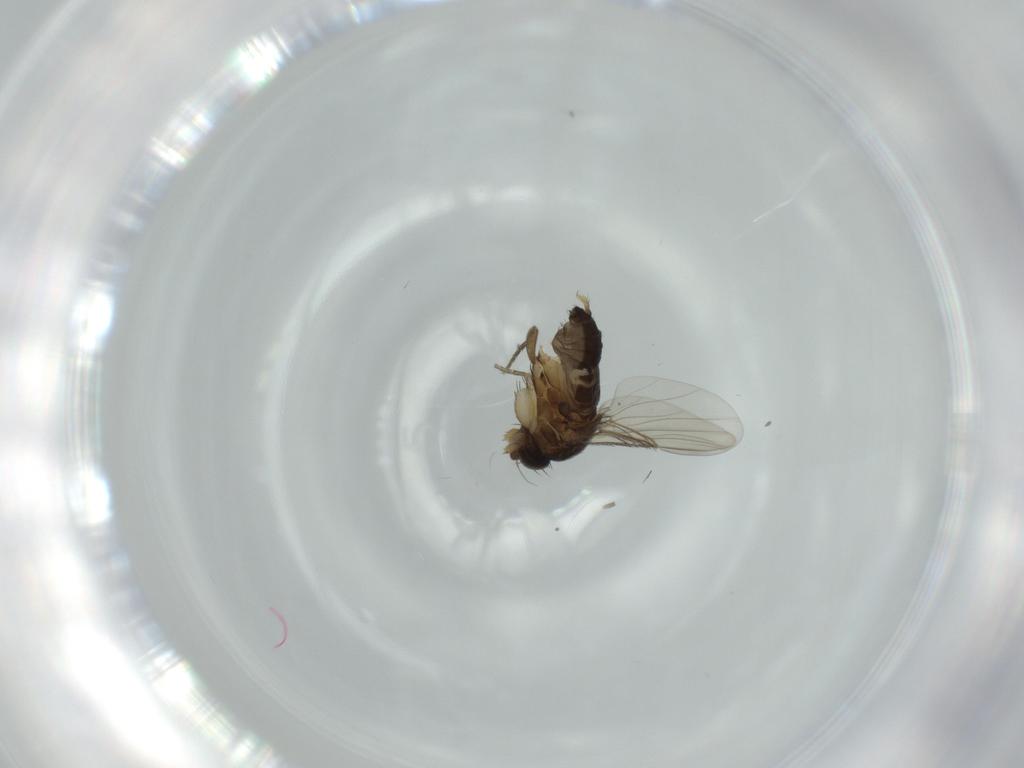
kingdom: Animalia
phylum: Arthropoda
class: Insecta
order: Diptera
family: Phoridae
